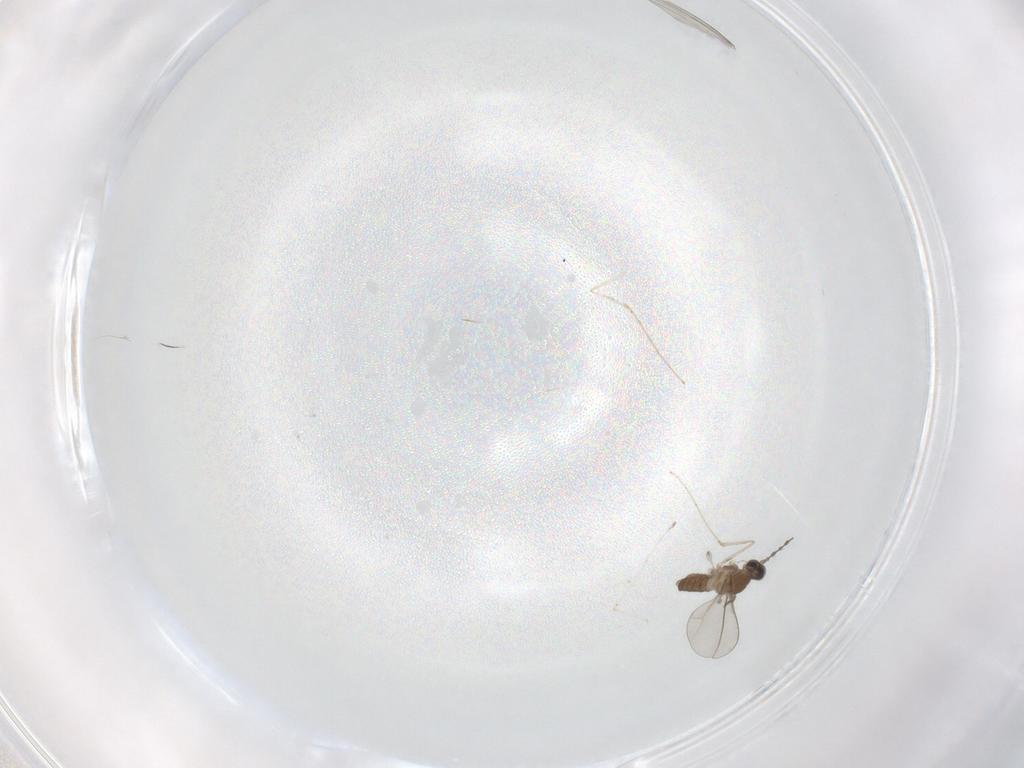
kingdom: Animalia
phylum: Arthropoda
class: Insecta
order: Diptera
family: Cecidomyiidae
